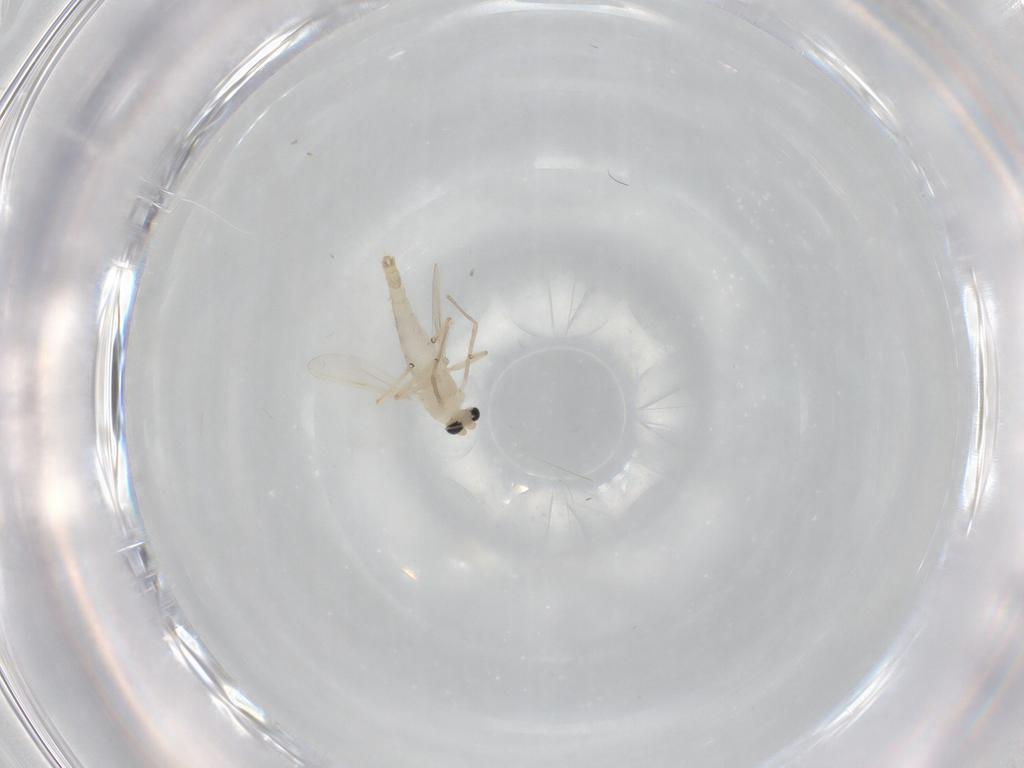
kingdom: Animalia
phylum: Arthropoda
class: Insecta
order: Diptera
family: Chironomidae
